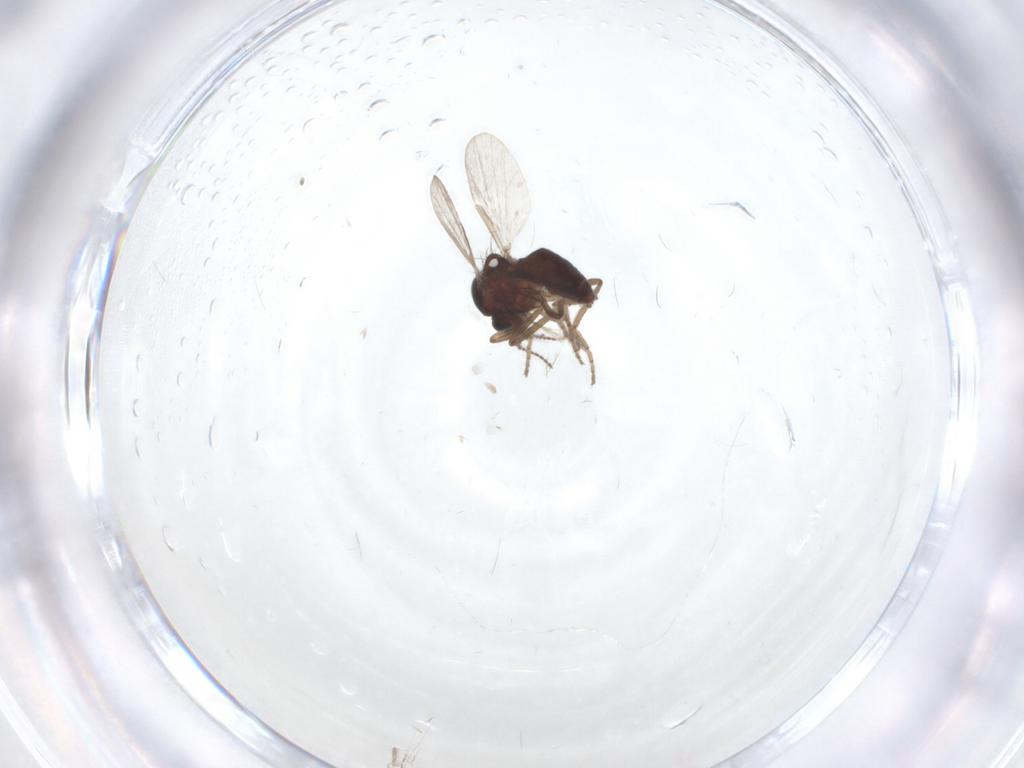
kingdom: Animalia
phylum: Arthropoda
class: Insecta
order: Diptera
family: Ceratopogonidae
